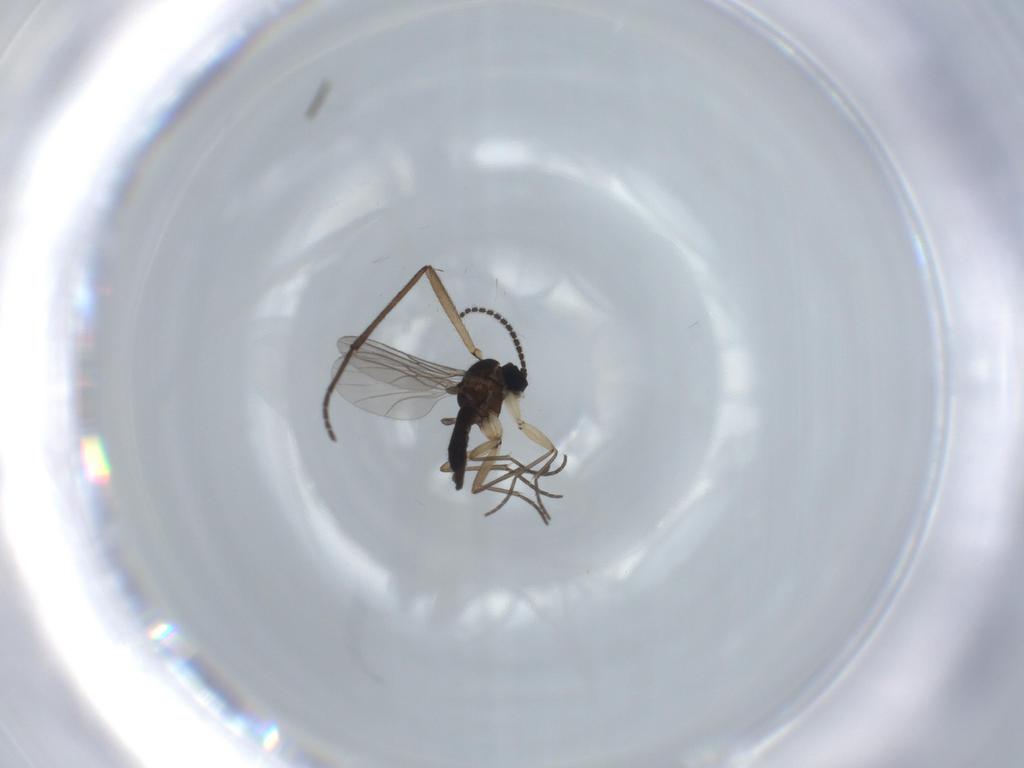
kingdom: Animalia
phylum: Arthropoda
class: Insecta
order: Diptera
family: Sciaridae
